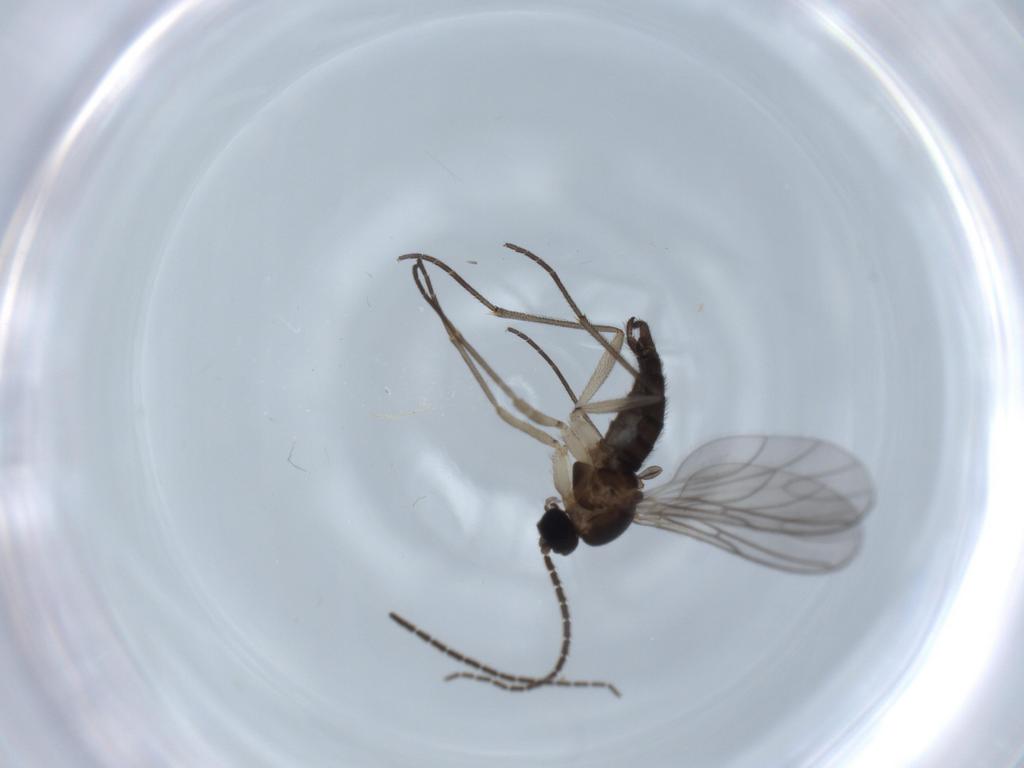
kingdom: Animalia
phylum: Arthropoda
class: Insecta
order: Diptera
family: Sciaridae
